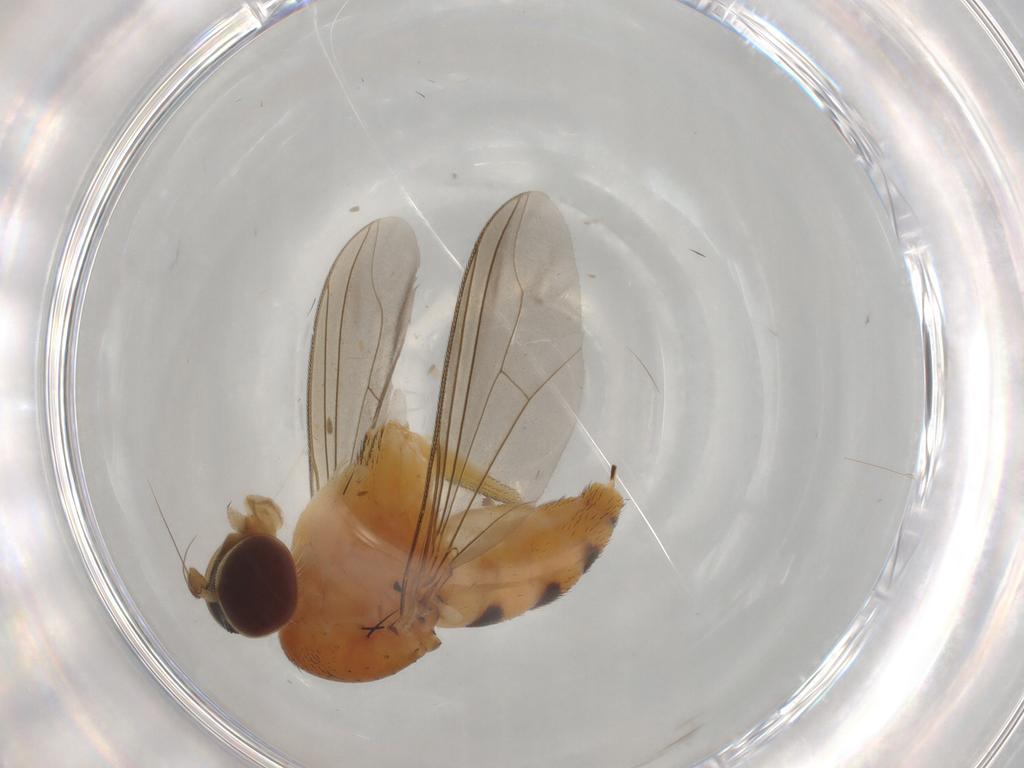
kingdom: Animalia
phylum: Arthropoda
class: Insecta
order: Diptera
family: Dolichopodidae
